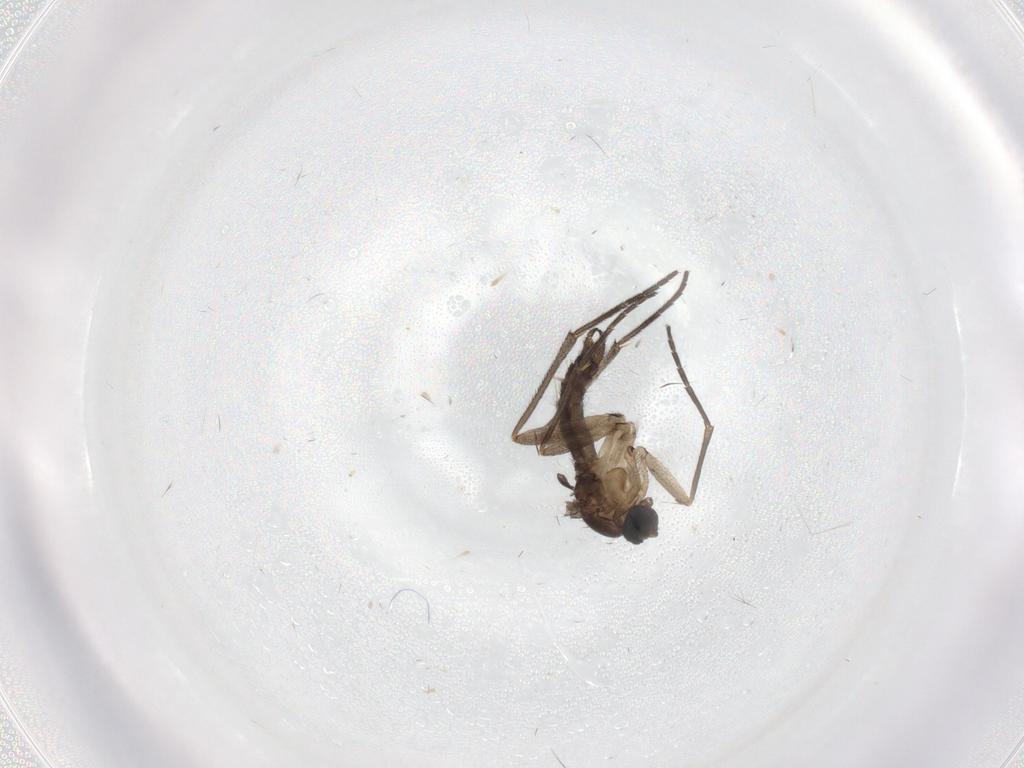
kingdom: Animalia
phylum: Arthropoda
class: Insecta
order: Diptera
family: Sciaridae
